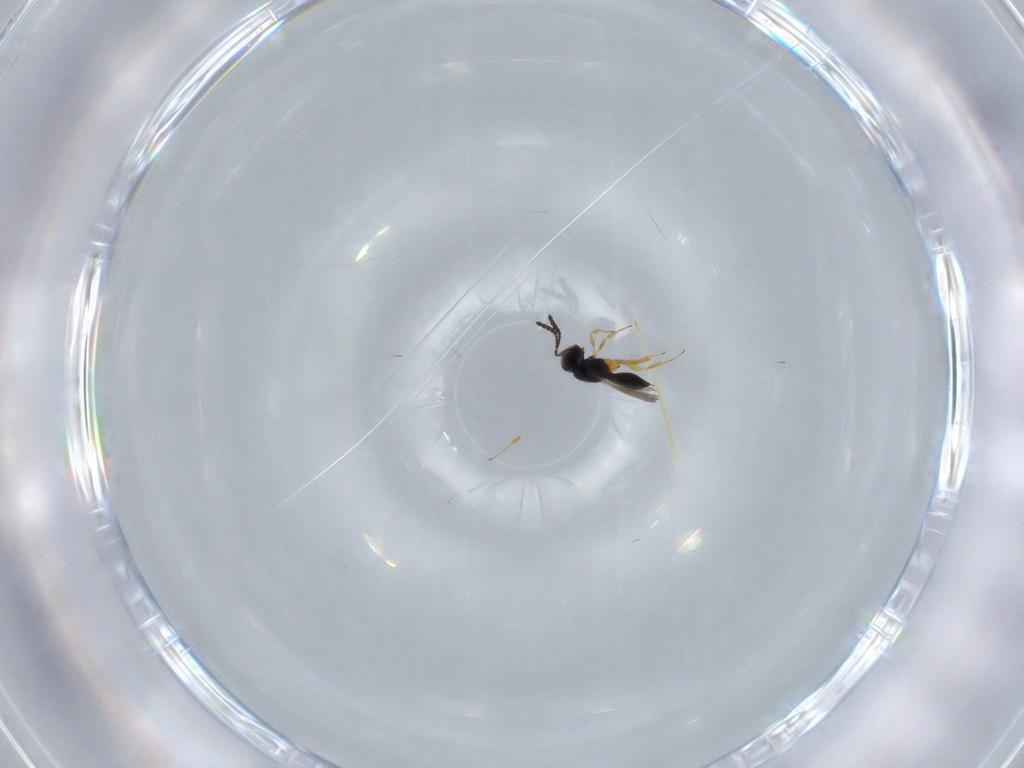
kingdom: Animalia
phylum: Arthropoda
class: Insecta
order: Hymenoptera
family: Scelionidae
